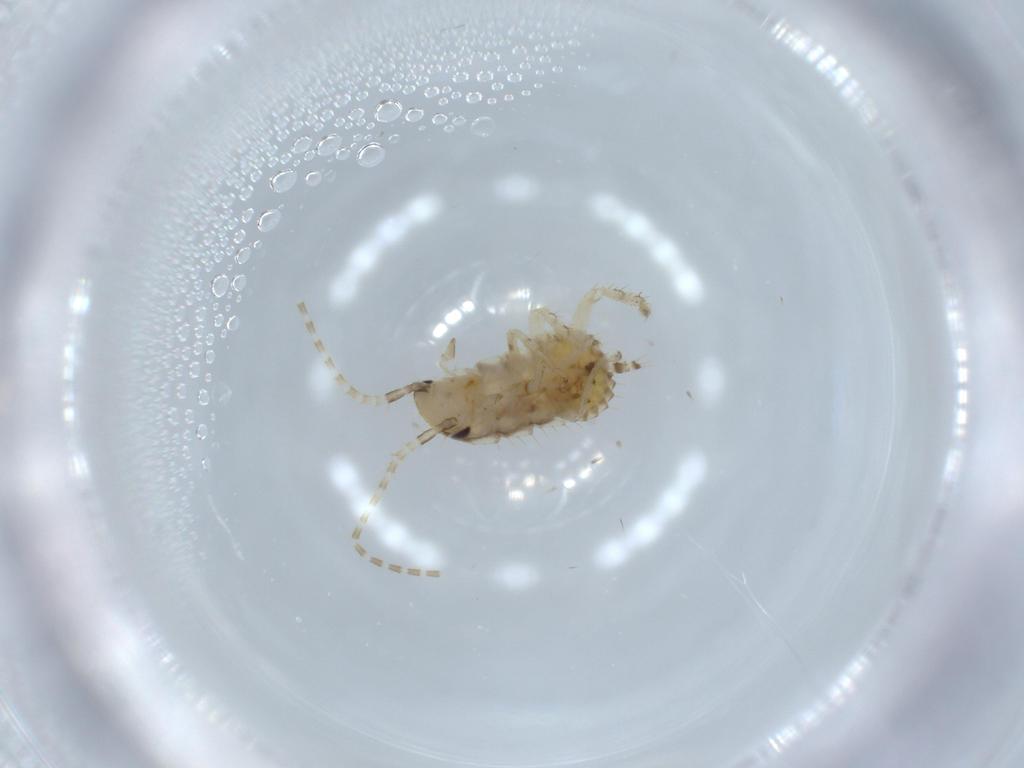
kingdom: Animalia
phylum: Arthropoda
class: Insecta
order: Blattodea
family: Ectobiidae
